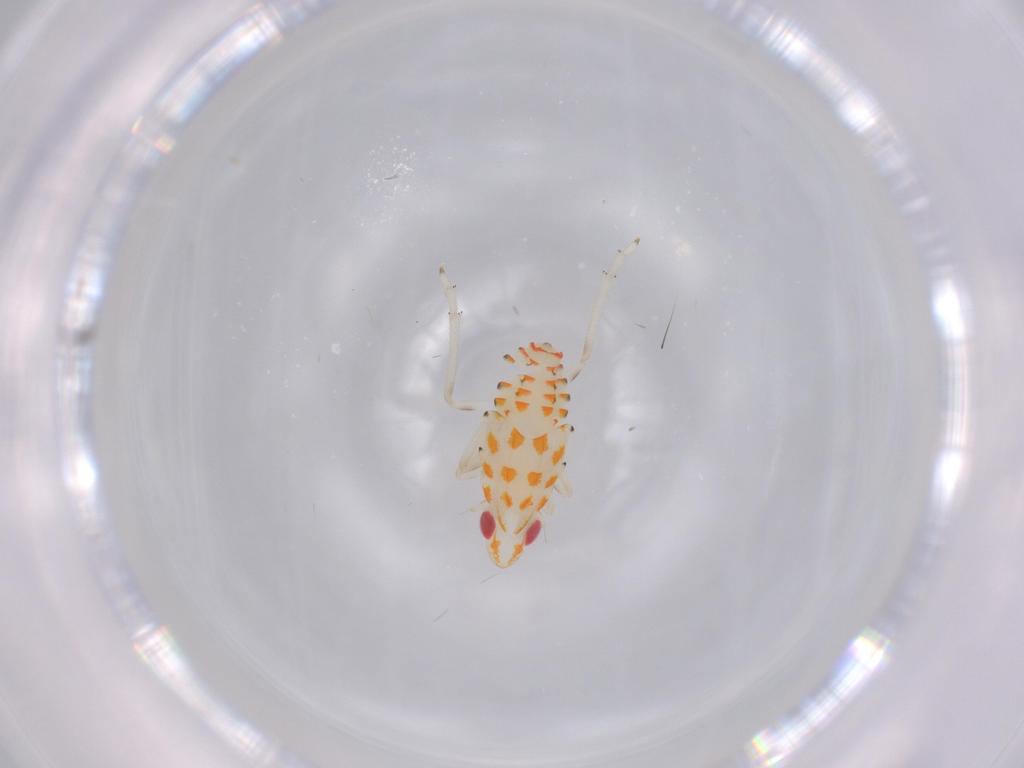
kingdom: Animalia
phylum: Arthropoda
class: Insecta
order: Hemiptera
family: Tropiduchidae
